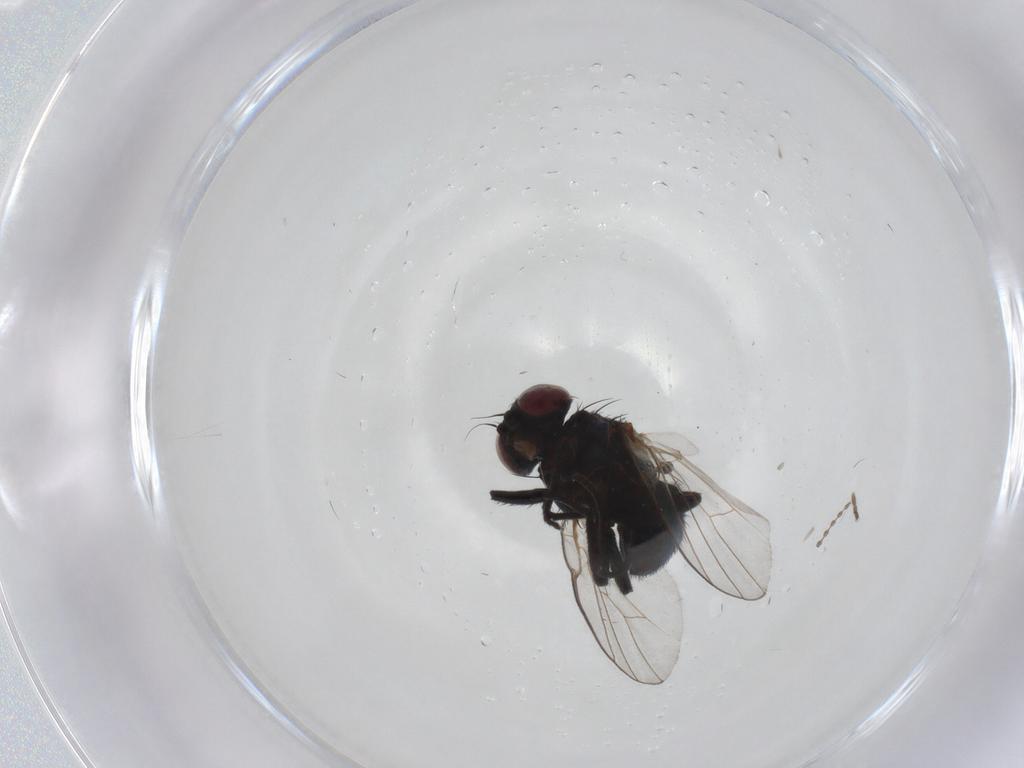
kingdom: Animalia
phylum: Arthropoda
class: Insecta
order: Diptera
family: Agromyzidae
